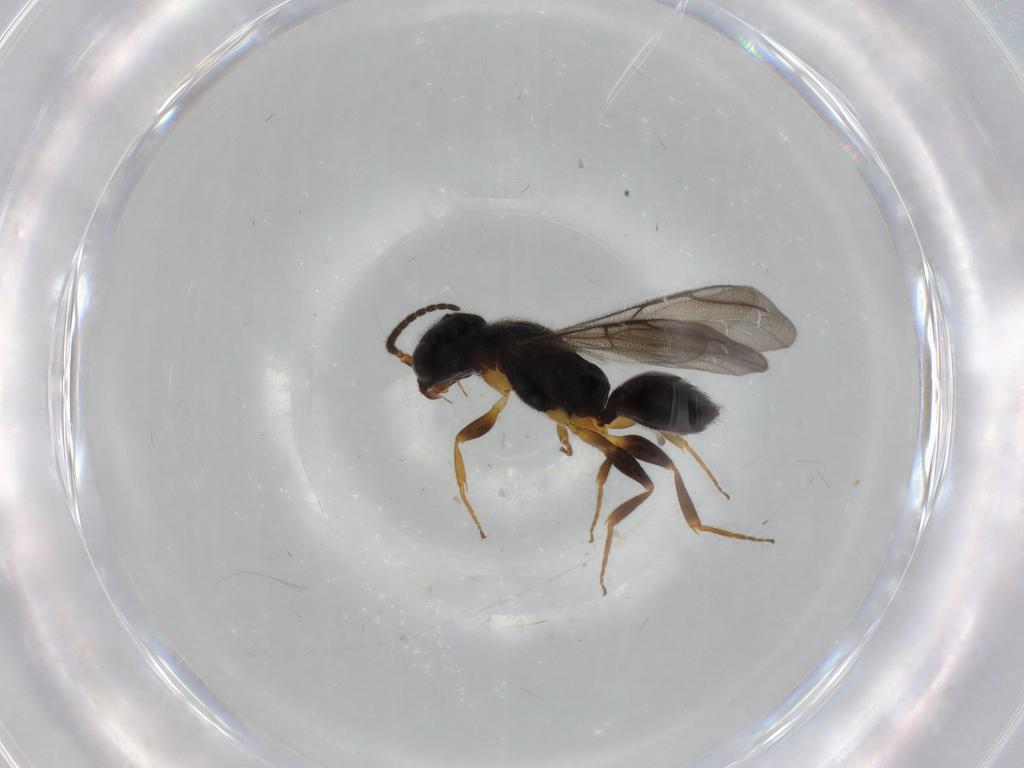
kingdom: Animalia
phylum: Arthropoda
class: Insecta
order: Hymenoptera
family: Bethylidae
